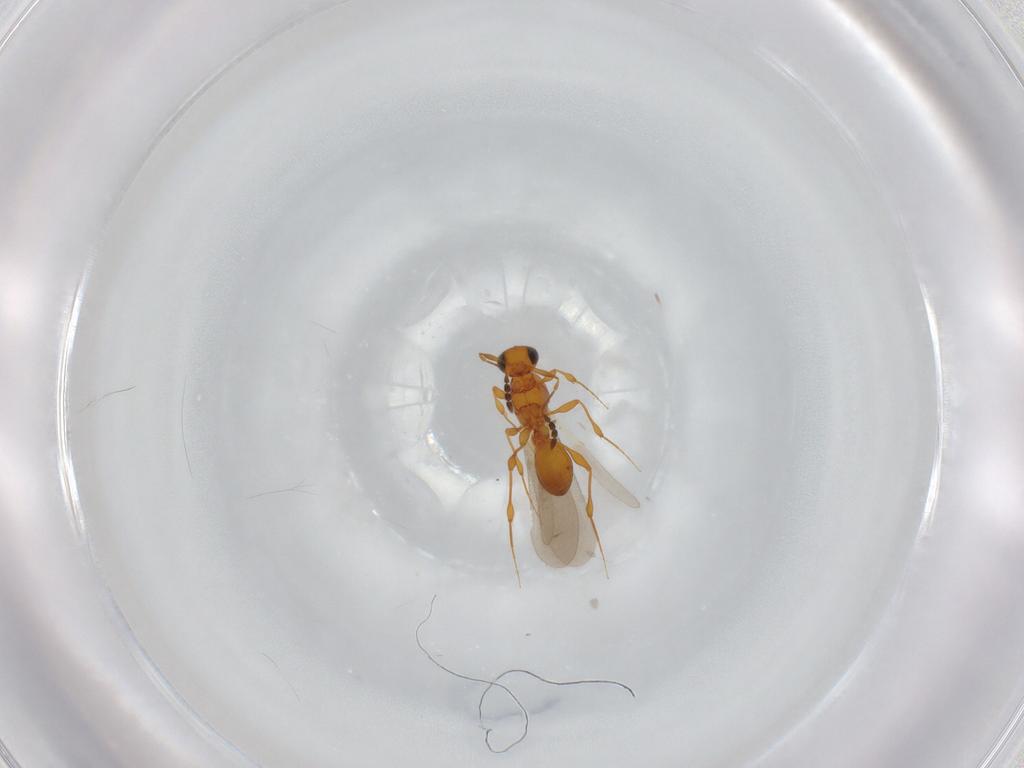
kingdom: Animalia
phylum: Arthropoda
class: Insecta
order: Hymenoptera
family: Platygastridae
